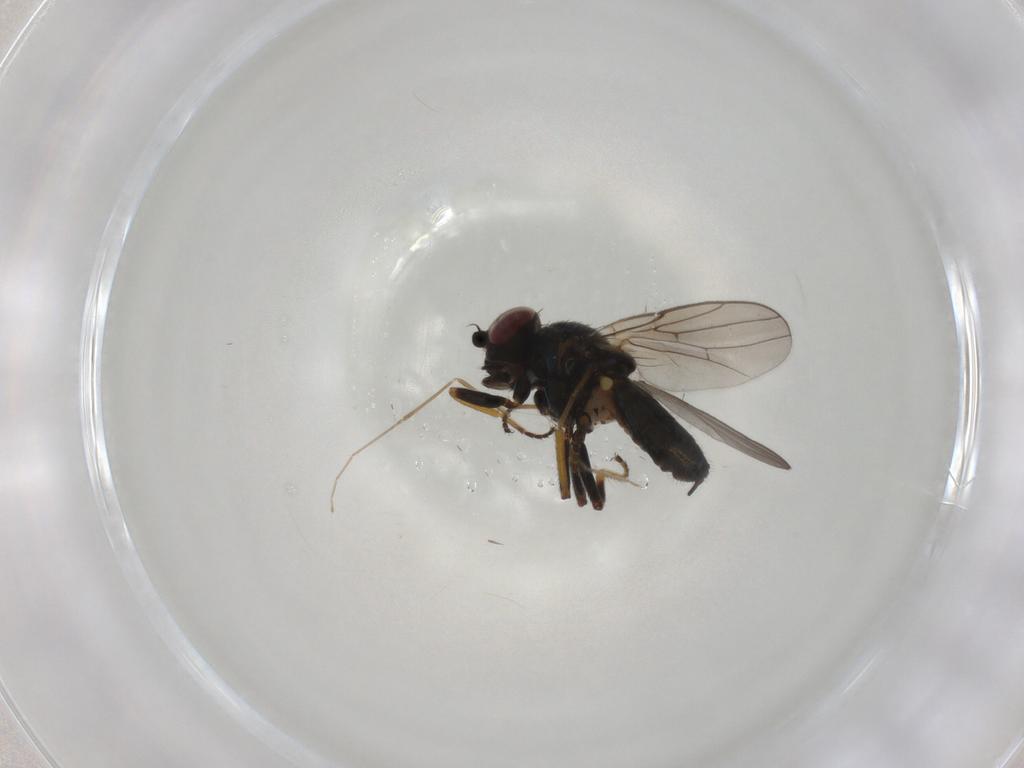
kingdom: Animalia
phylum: Arthropoda
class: Insecta
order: Diptera
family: Chloropidae
